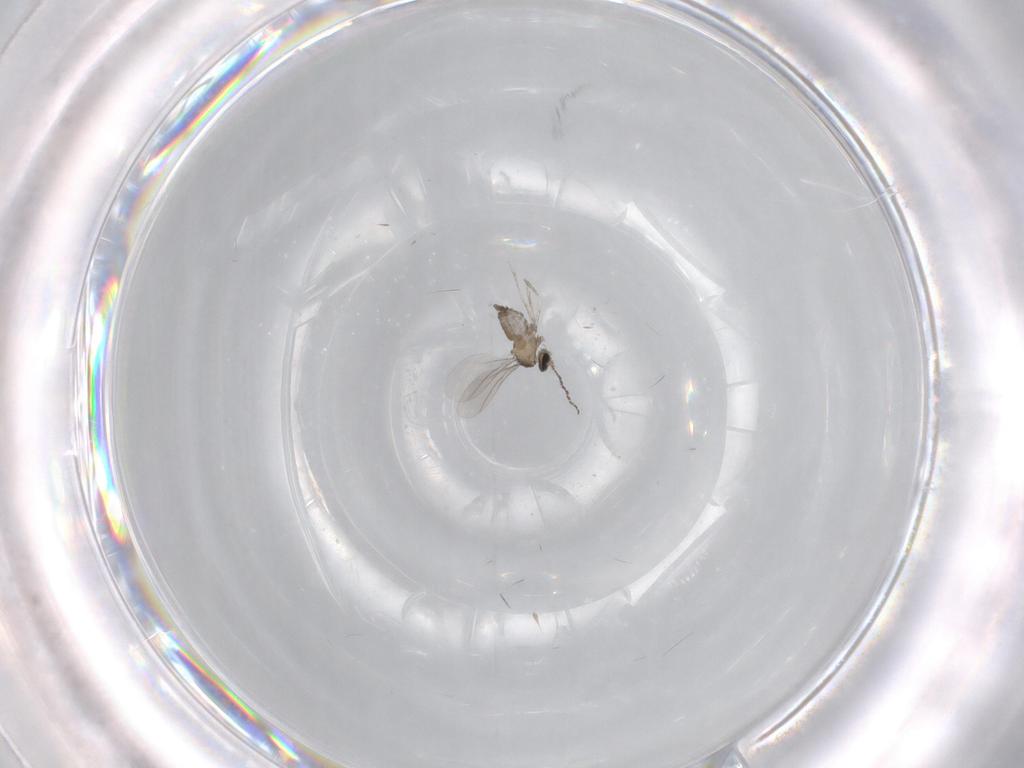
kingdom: Animalia
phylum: Arthropoda
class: Insecta
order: Diptera
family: Cecidomyiidae
